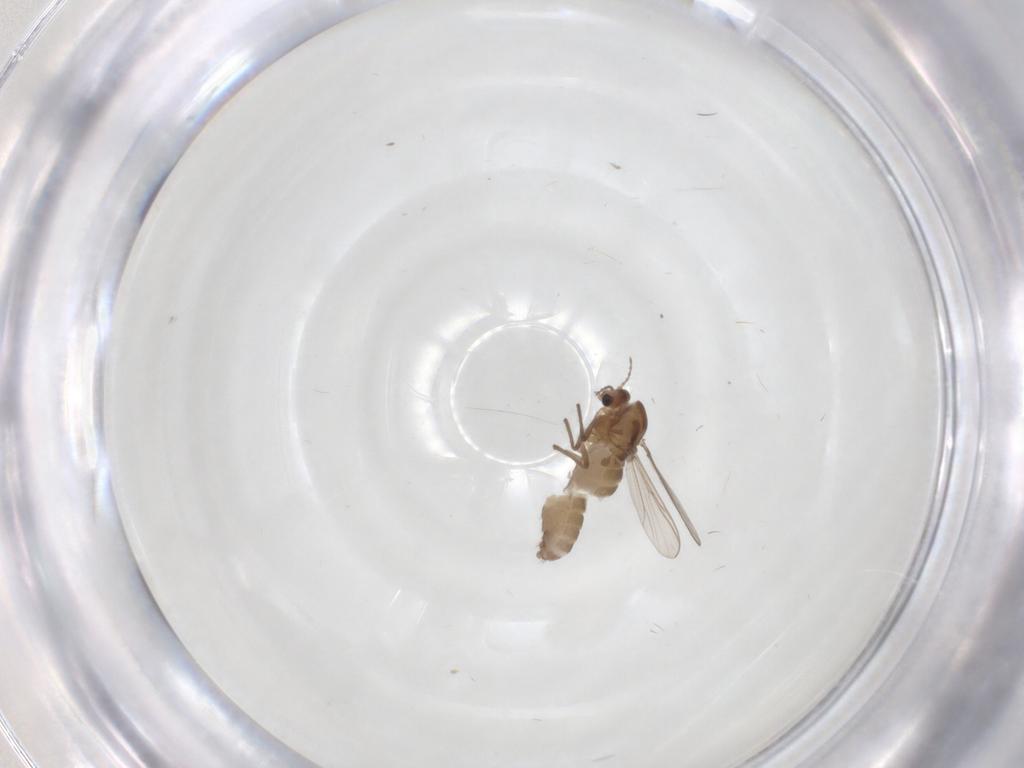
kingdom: Animalia
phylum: Arthropoda
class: Insecta
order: Diptera
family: Chironomidae
